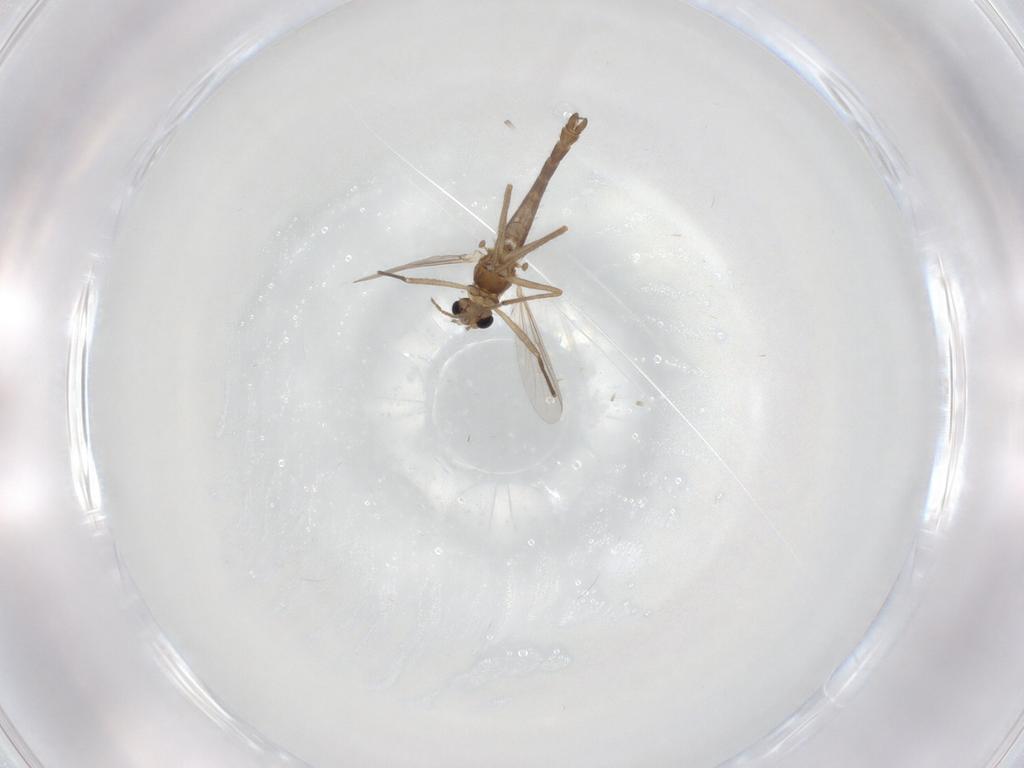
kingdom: Animalia
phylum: Arthropoda
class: Insecta
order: Diptera
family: Chironomidae
